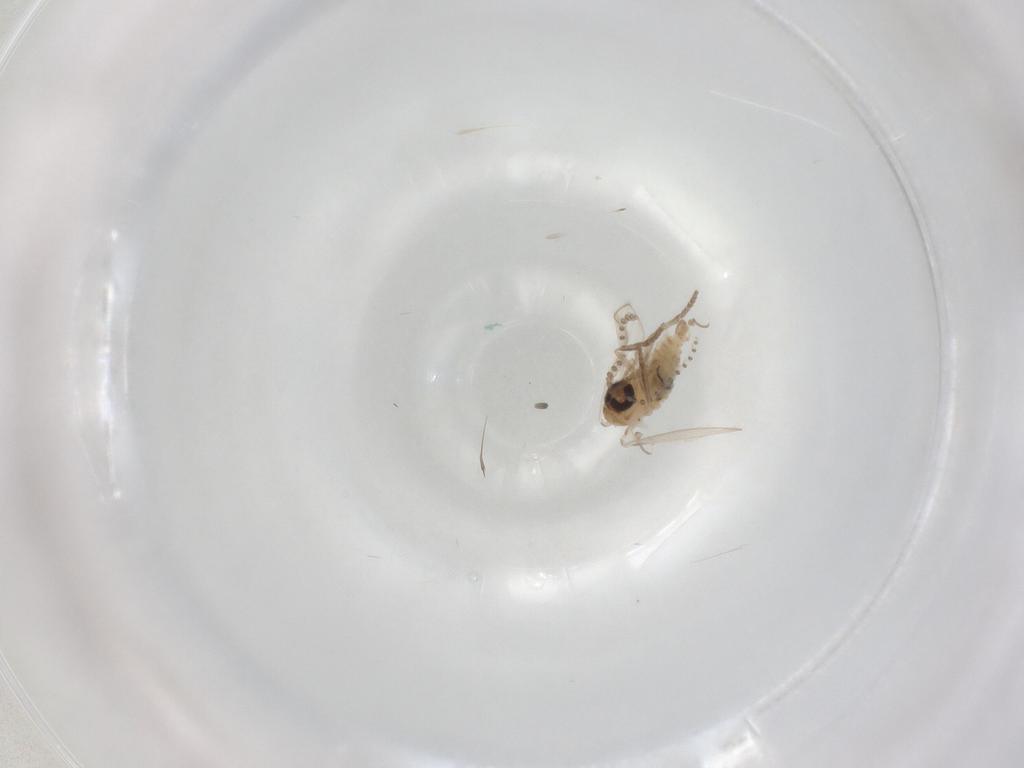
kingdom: Animalia
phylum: Arthropoda
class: Insecta
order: Diptera
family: Psychodidae
